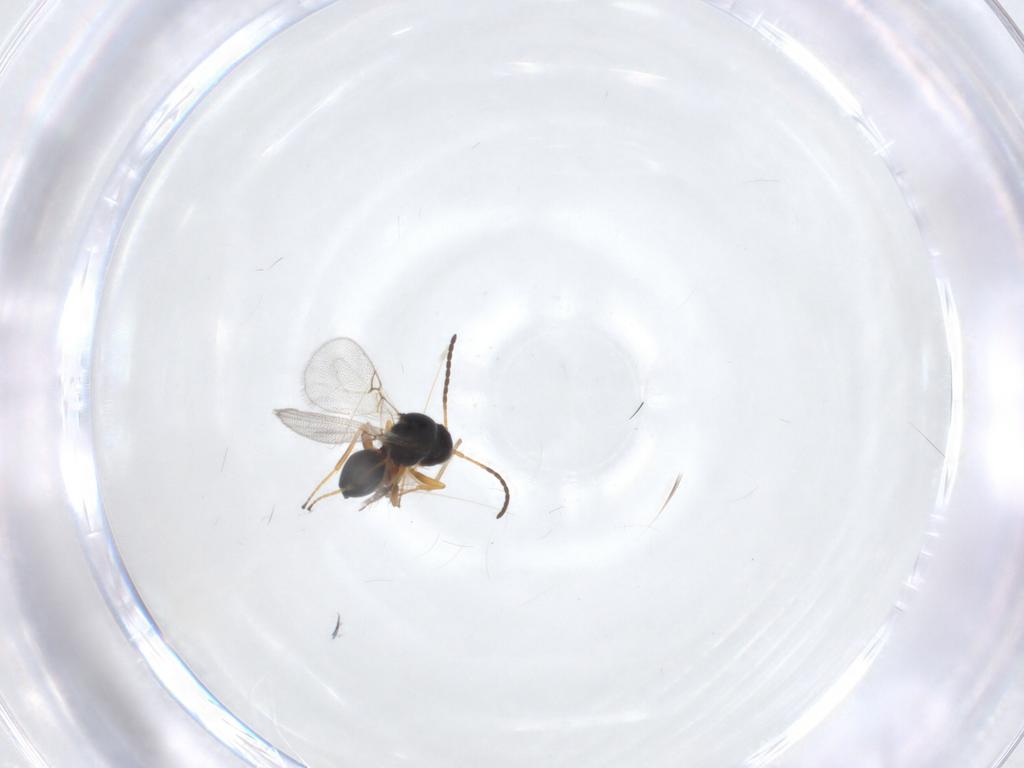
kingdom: Animalia
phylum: Arthropoda
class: Insecta
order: Hymenoptera
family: Figitidae
